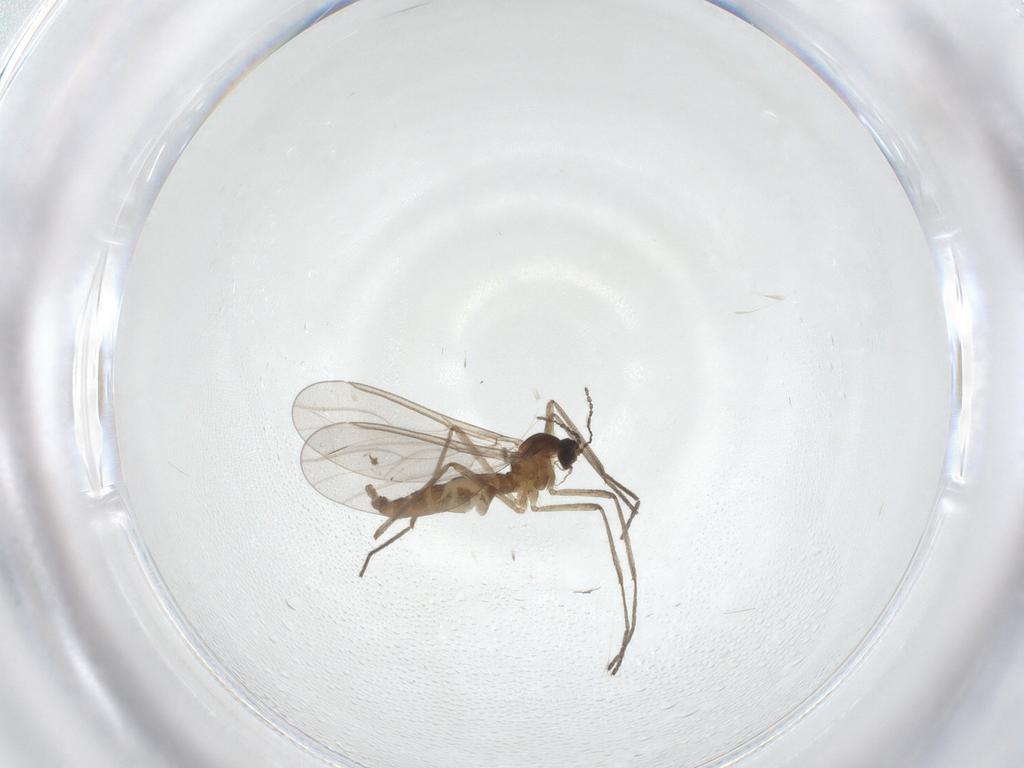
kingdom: Animalia
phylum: Arthropoda
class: Insecta
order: Diptera
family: Cecidomyiidae
